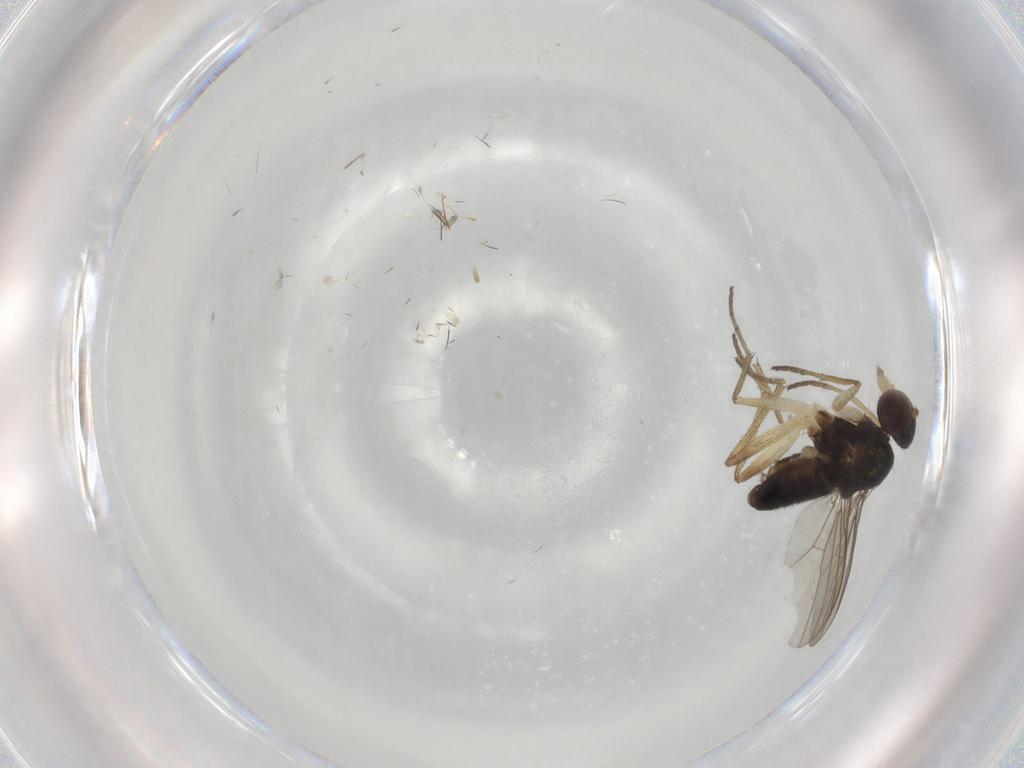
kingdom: Animalia
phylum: Arthropoda
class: Insecta
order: Diptera
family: Dolichopodidae
